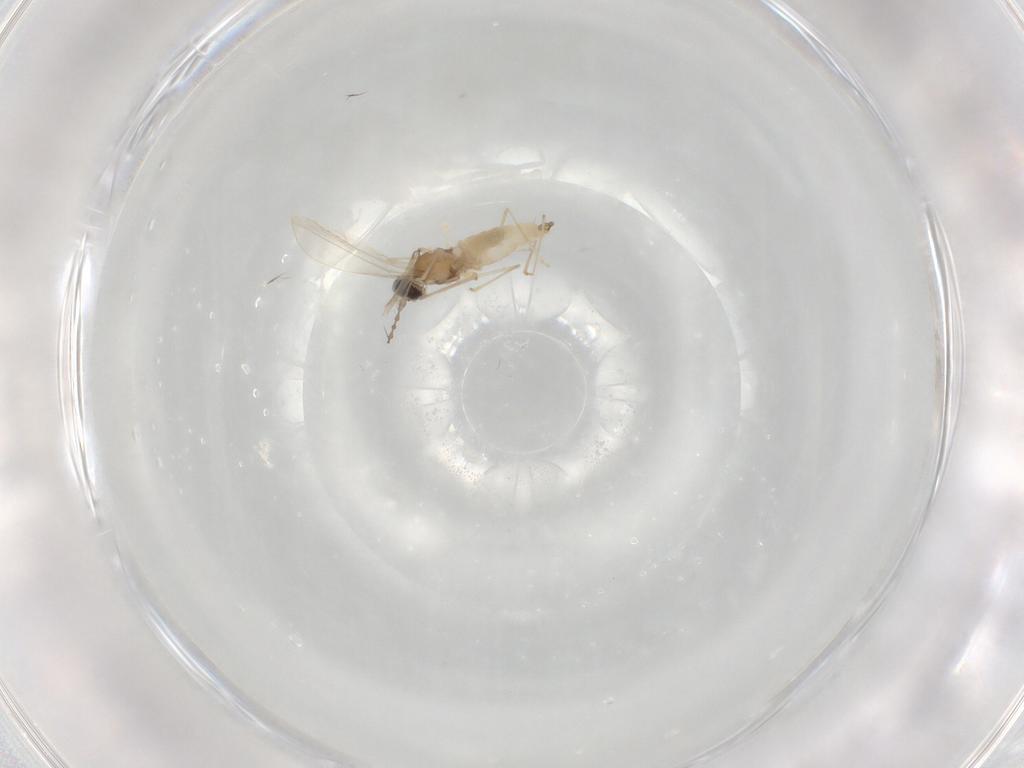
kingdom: Animalia
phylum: Arthropoda
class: Insecta
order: Diptera
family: Cecidomyiidae
